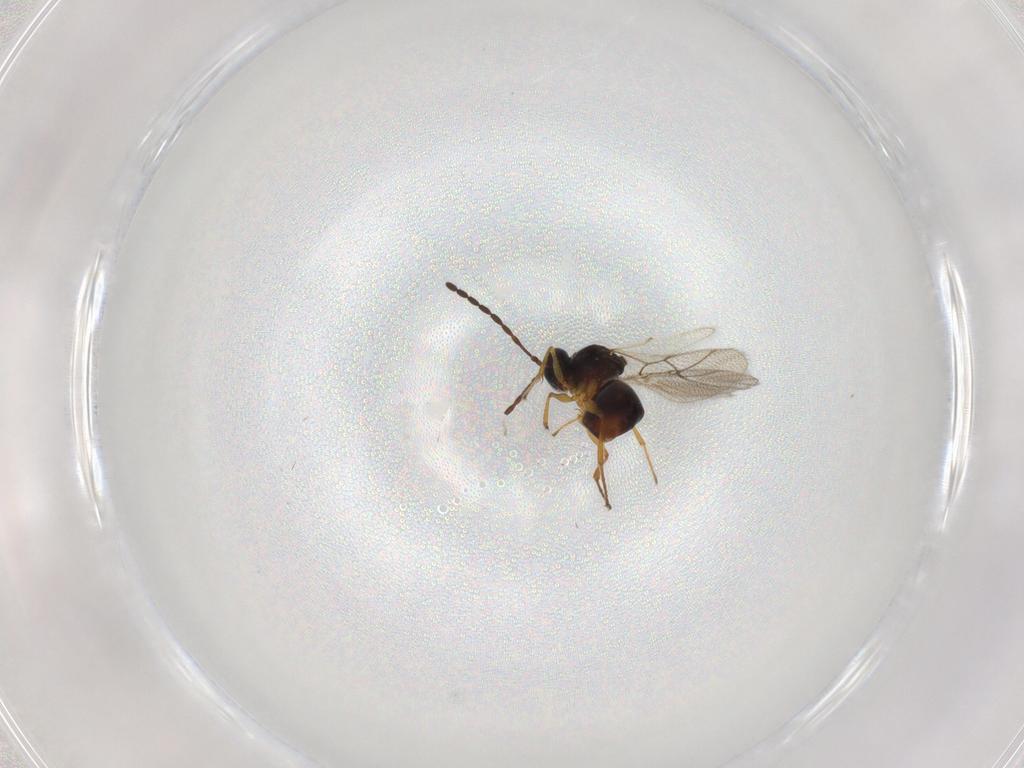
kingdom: Animalia
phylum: Arthropoda
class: Insecta
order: Hymenoptera
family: Figitidae
